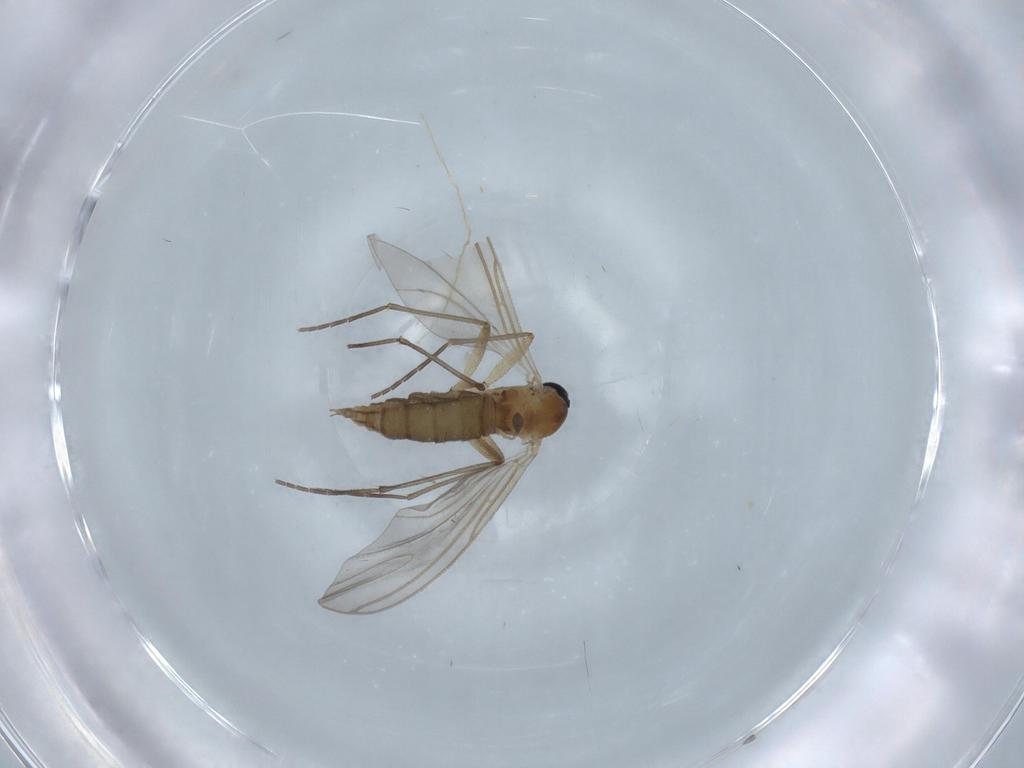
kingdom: Animalia
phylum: Arthropoda
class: Insecta
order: Diptera
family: Sciaridae
